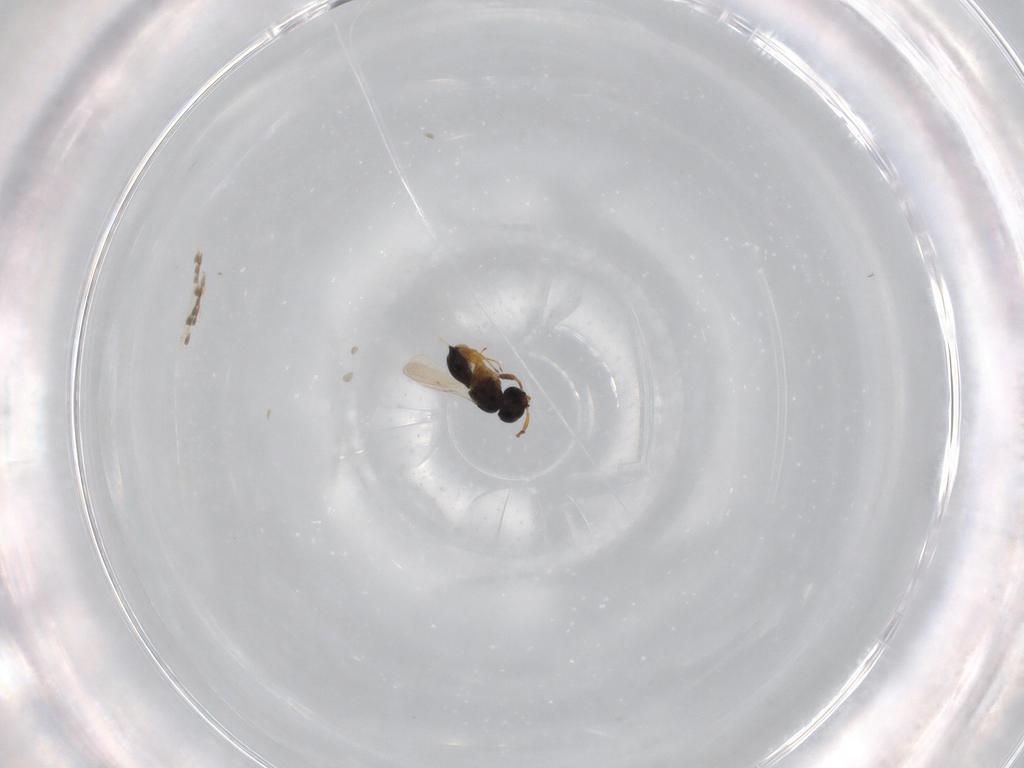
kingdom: Animalia
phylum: Arthropoda
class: Insecta
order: Hymenoptera
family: Scelionidae
